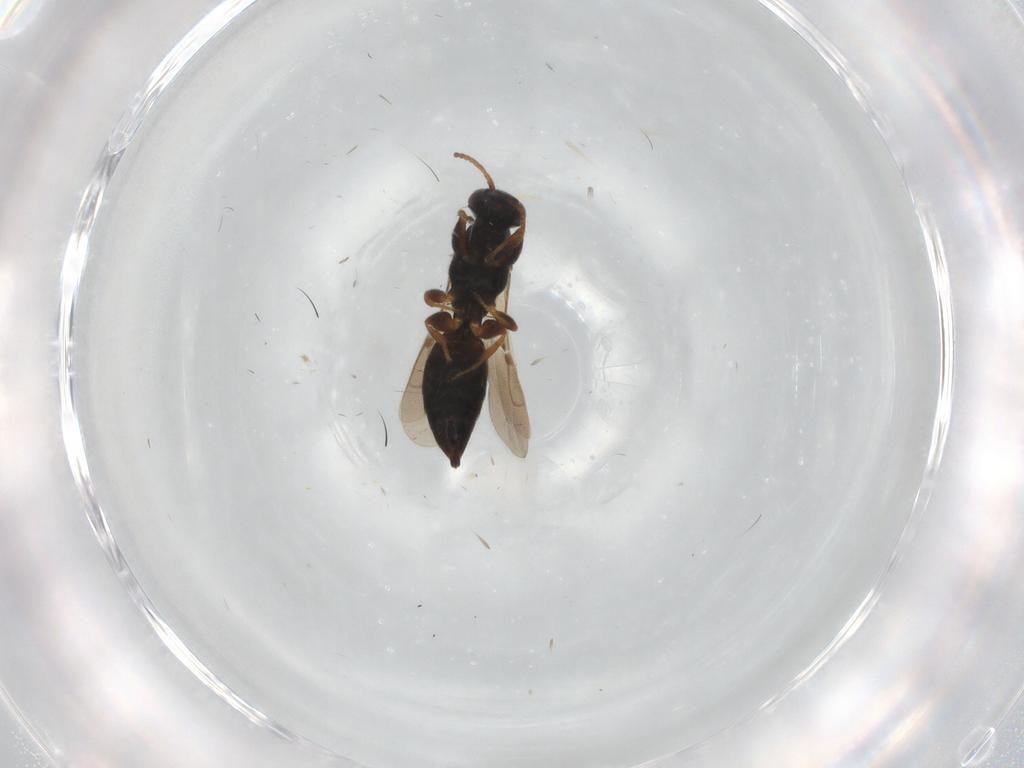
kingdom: Animalia
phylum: Arthropoda
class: Insecta
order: Hymenoptera
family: Bethylidae
